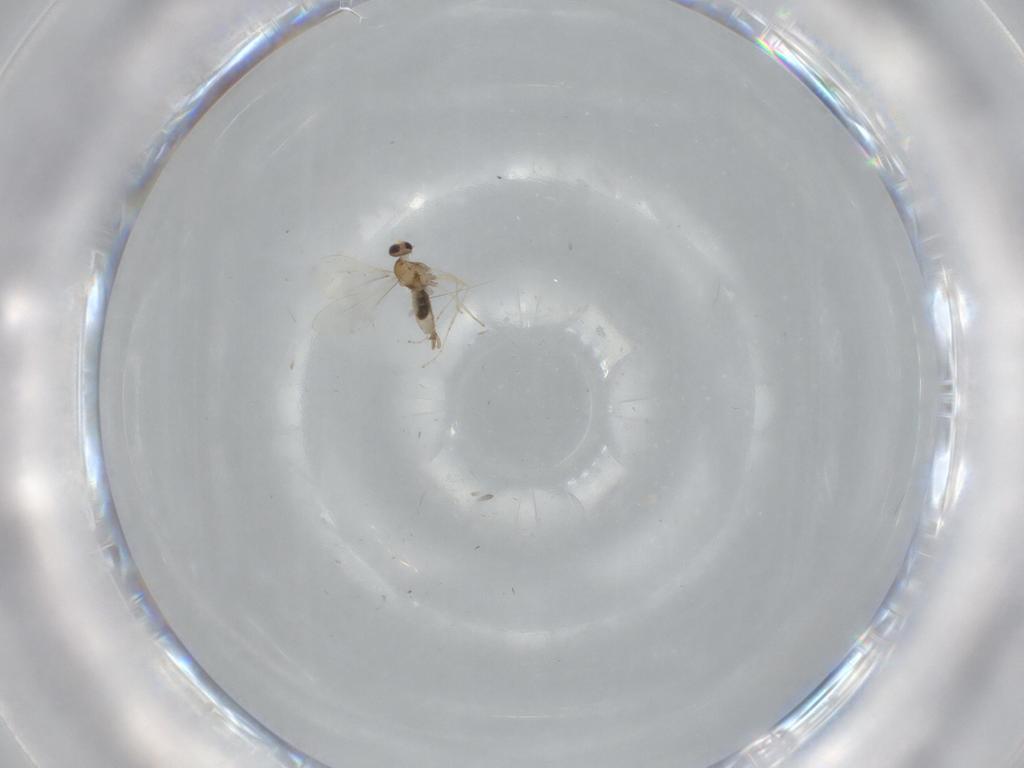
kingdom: Animalia
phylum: Arthropoda
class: Insecta
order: Diptera
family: Cecidomyiidae
